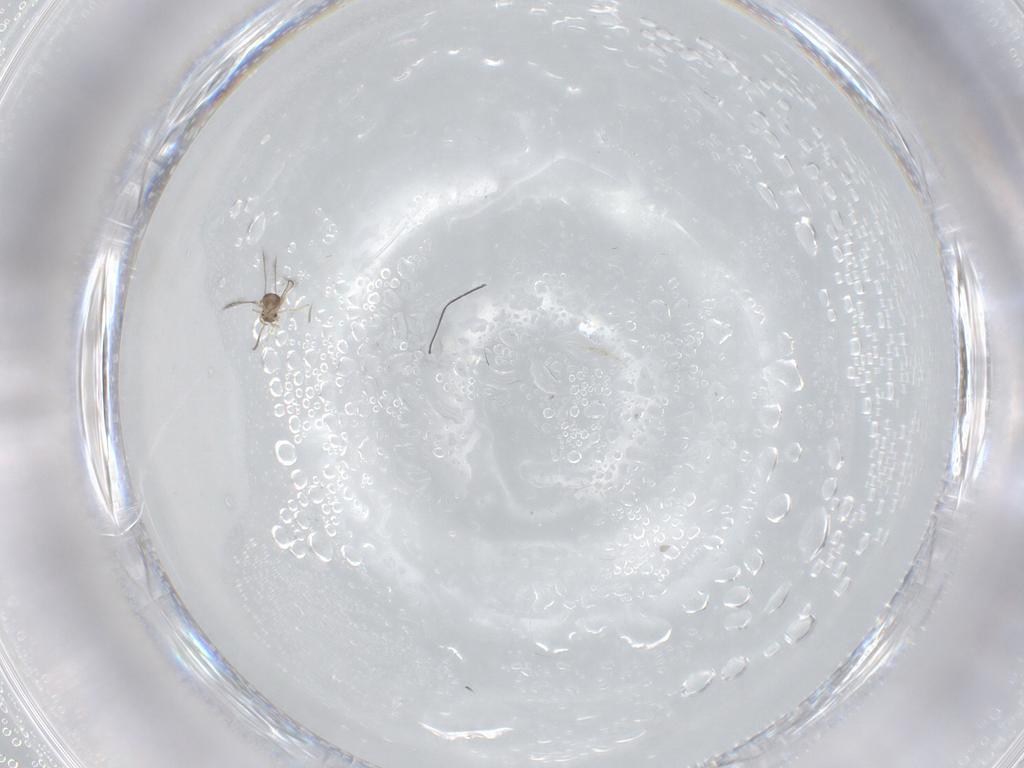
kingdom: Animalia
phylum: Arthropoda
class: Insecta
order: Hymenoptera
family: Scelionidae
